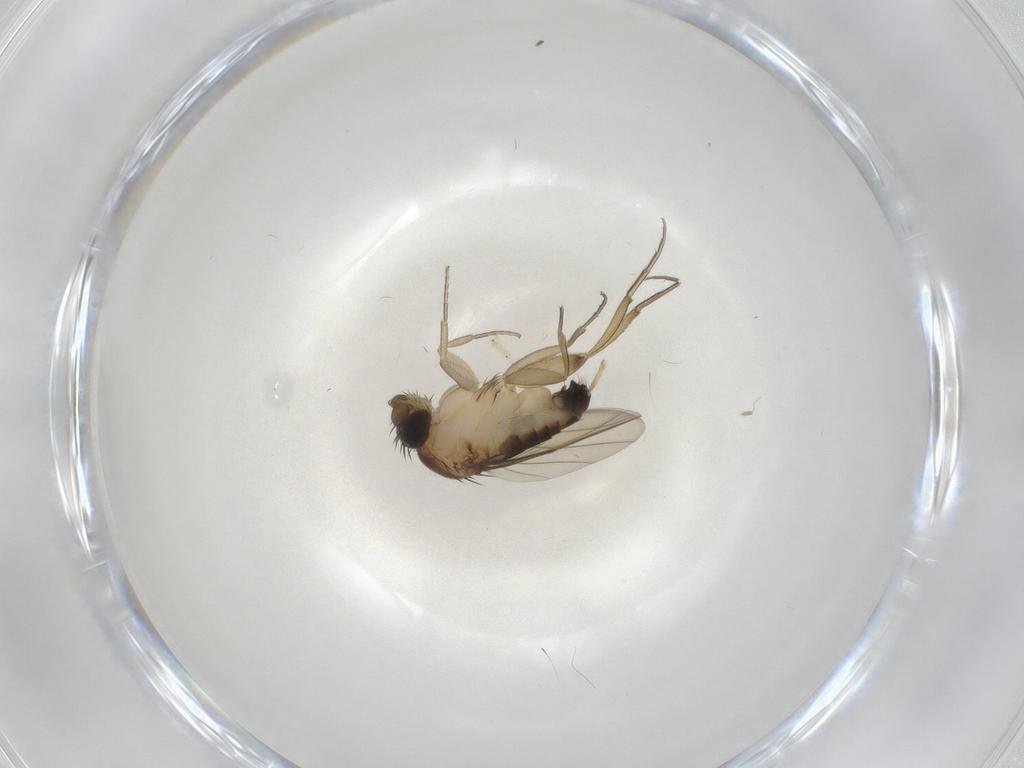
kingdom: Animalia
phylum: Arthropoda
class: Insecta
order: Diptera
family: Phoridae
